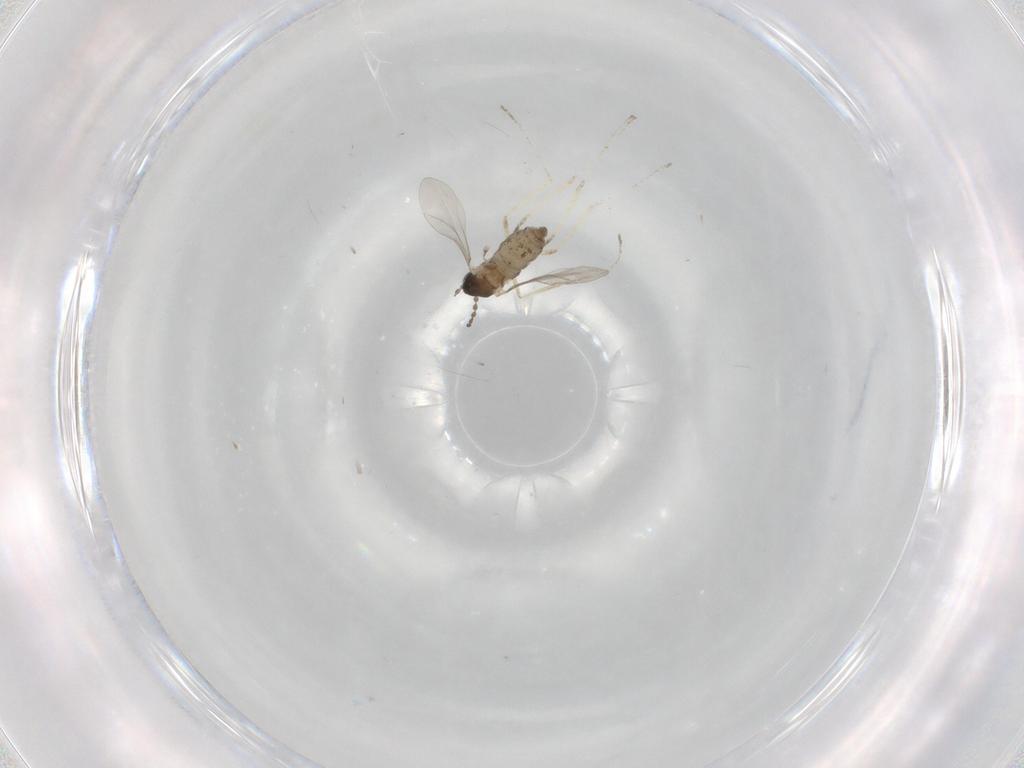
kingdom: Animalia
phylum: Arthropoda
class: Insecta
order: Diptera
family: Cecidomyiidae
